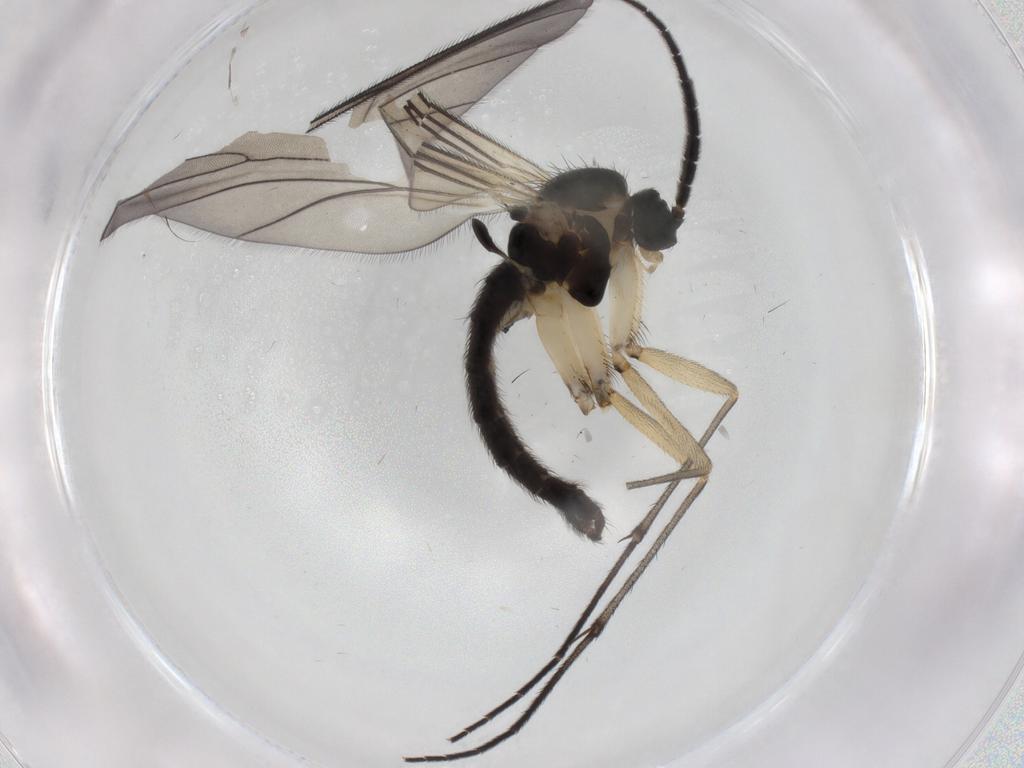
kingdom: Animalia
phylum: Arthropoda
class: Insecta
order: Diptera
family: Sciaridae
